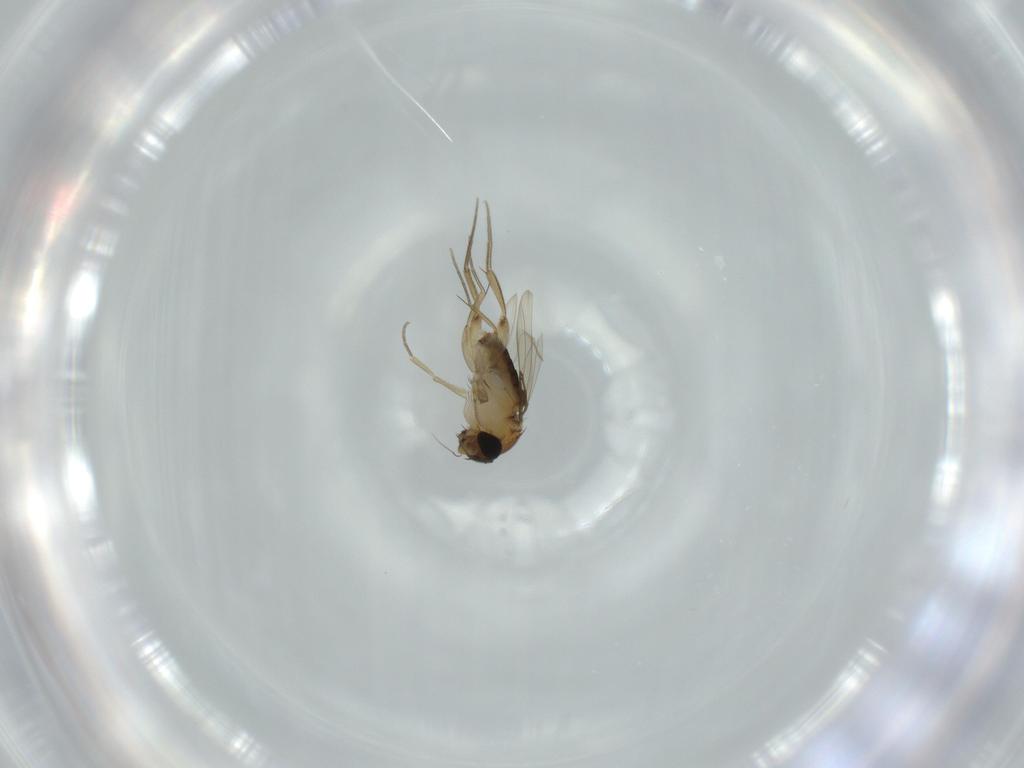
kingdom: Animalia
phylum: Arthropoda
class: Insecta
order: Diptera
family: Phoridae
